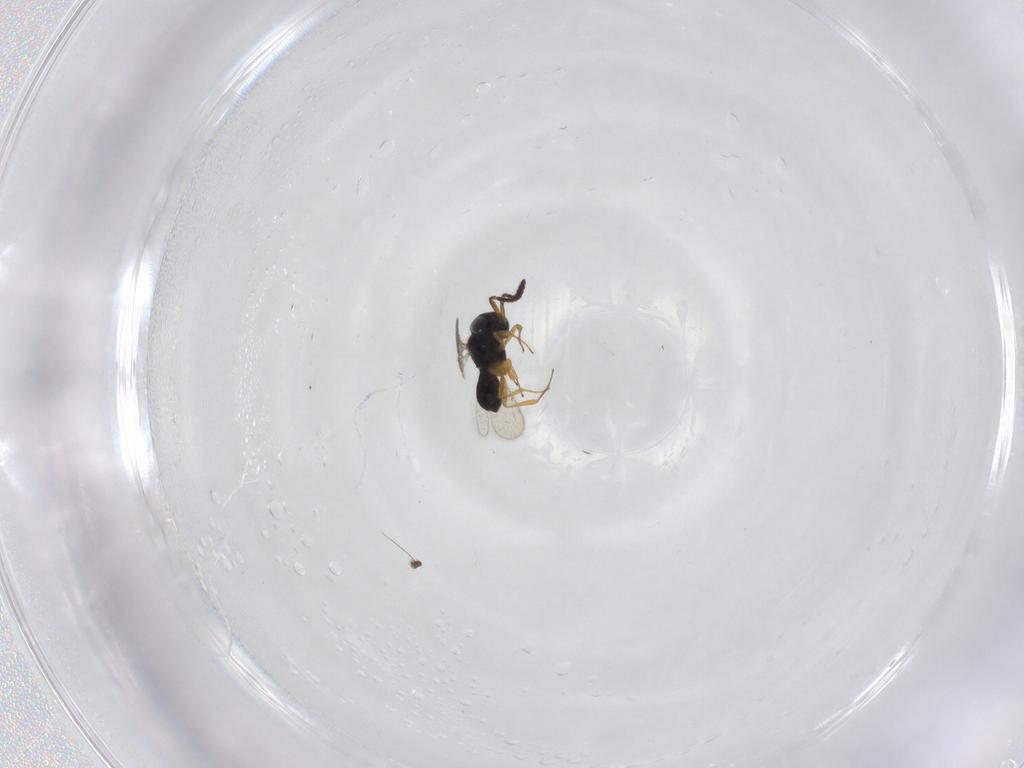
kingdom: Animalia
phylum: Arthropoda
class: Insecta
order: Hymenoptera
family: Scelionidae
